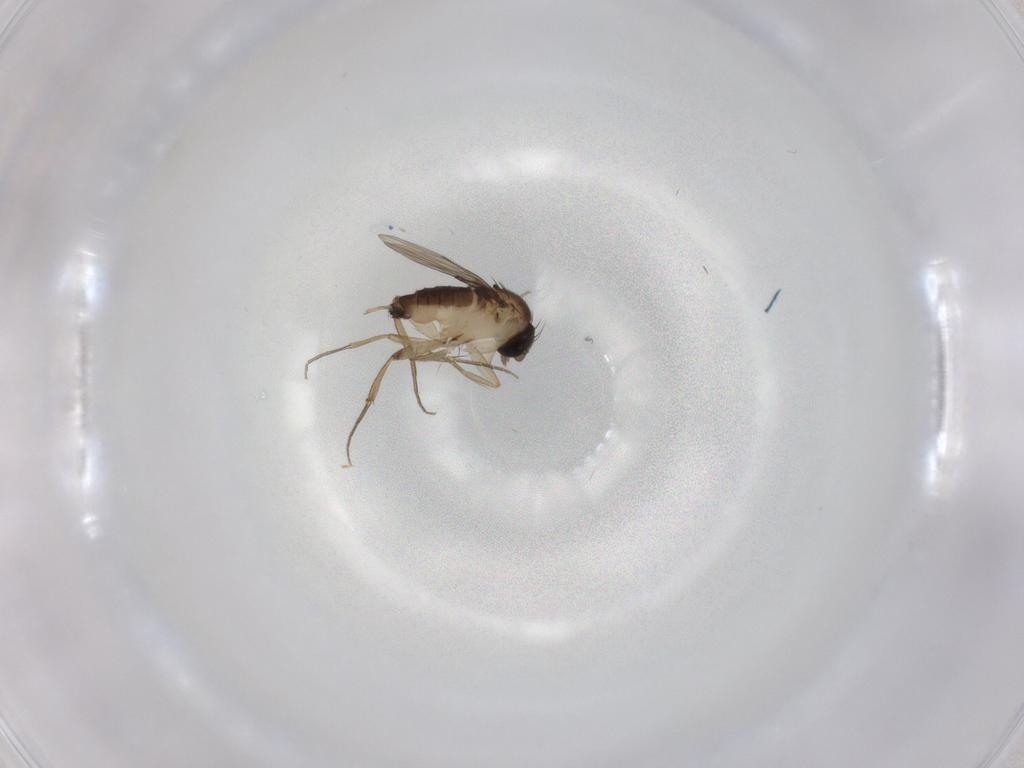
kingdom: Animalia
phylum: Arthropoda
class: Insecta
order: Diptera
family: Phoridae
